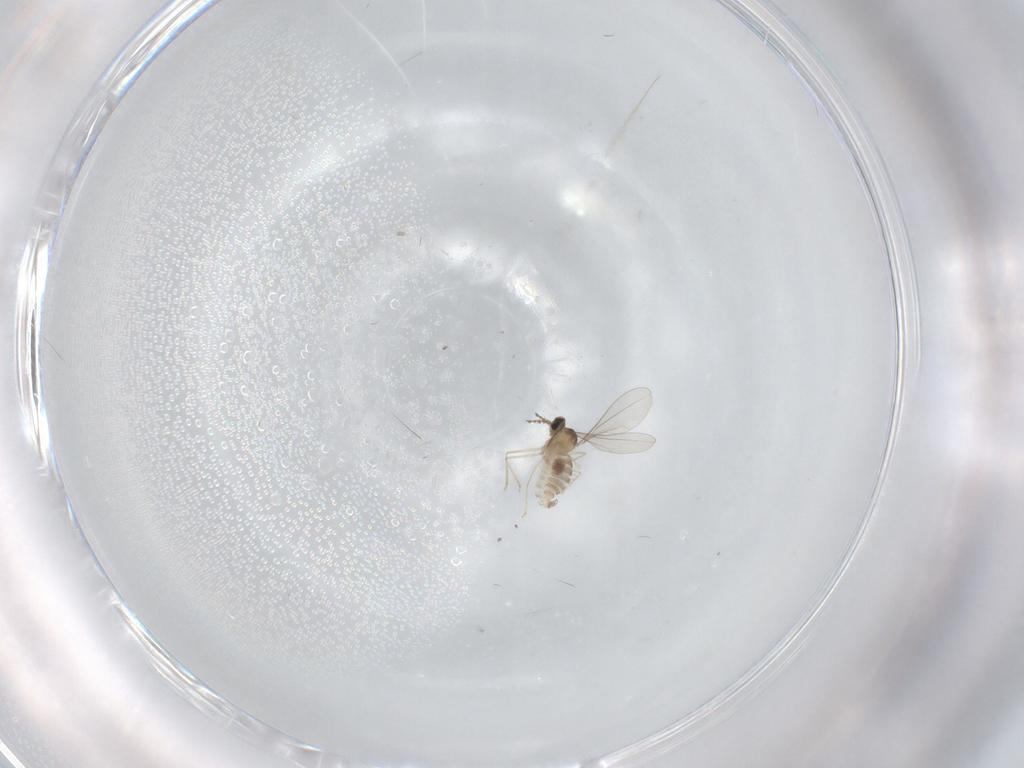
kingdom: Animalia
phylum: Arthropoda
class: Insecta
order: Diptera
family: Cecidomyiidae
